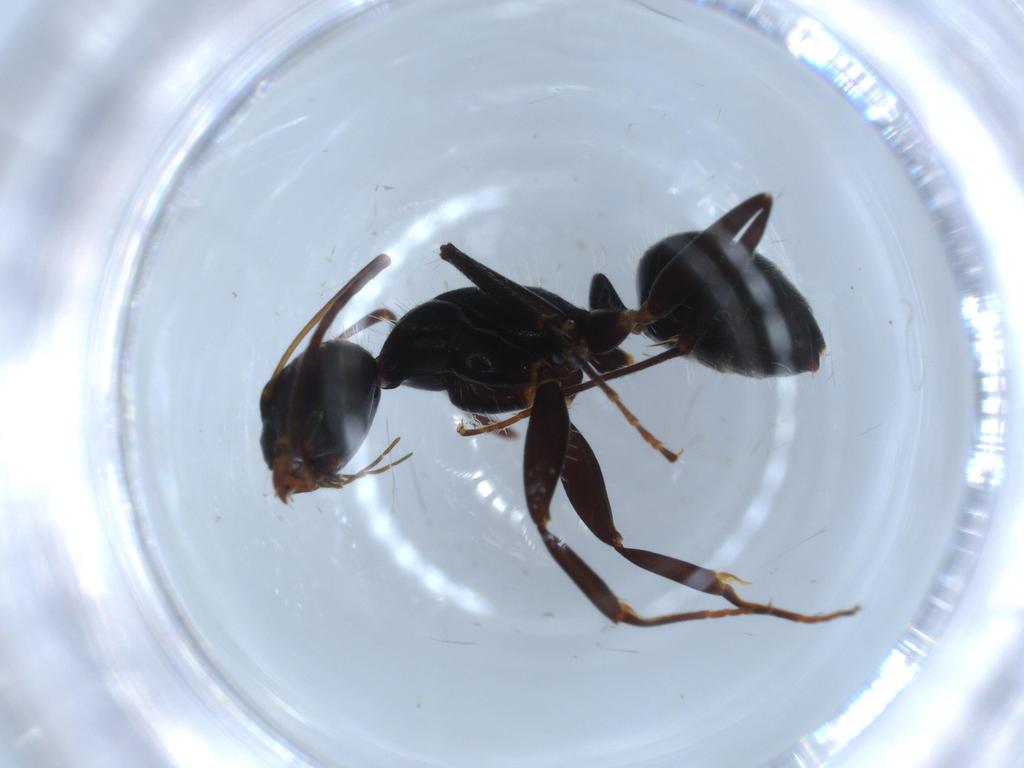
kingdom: Animalia
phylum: Arthropoda
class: Insecta
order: Hymenoptera
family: Formicidae
